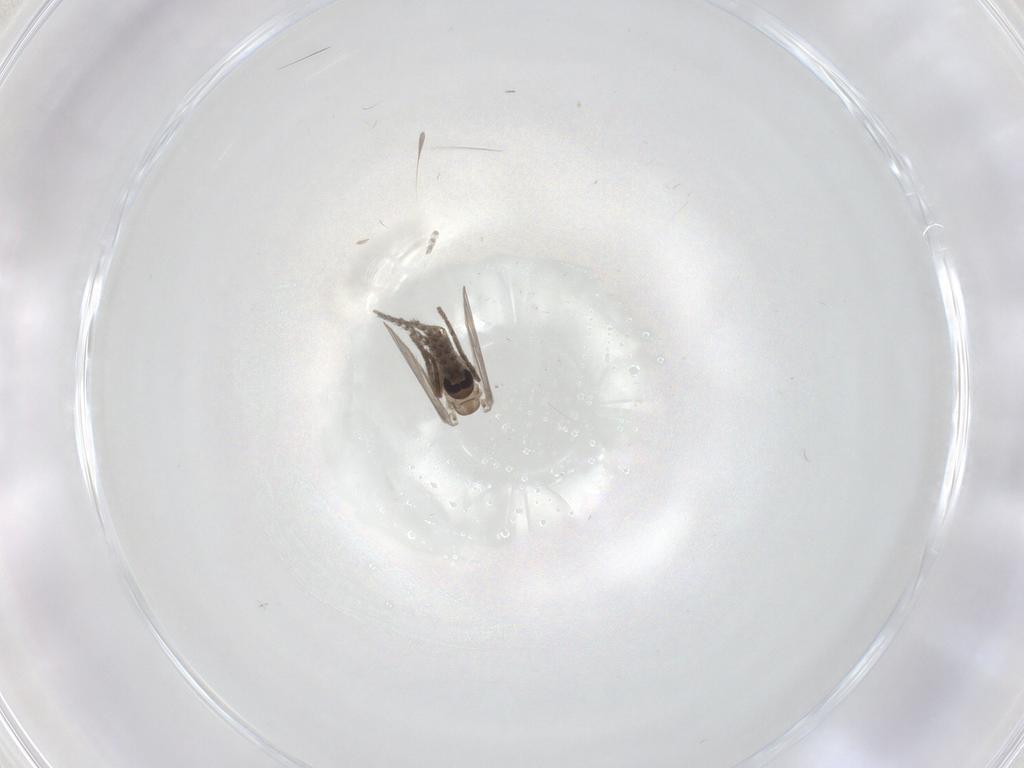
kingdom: Animalia
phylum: Arthropoda
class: Insecta
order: Diptera
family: Psychodidae
